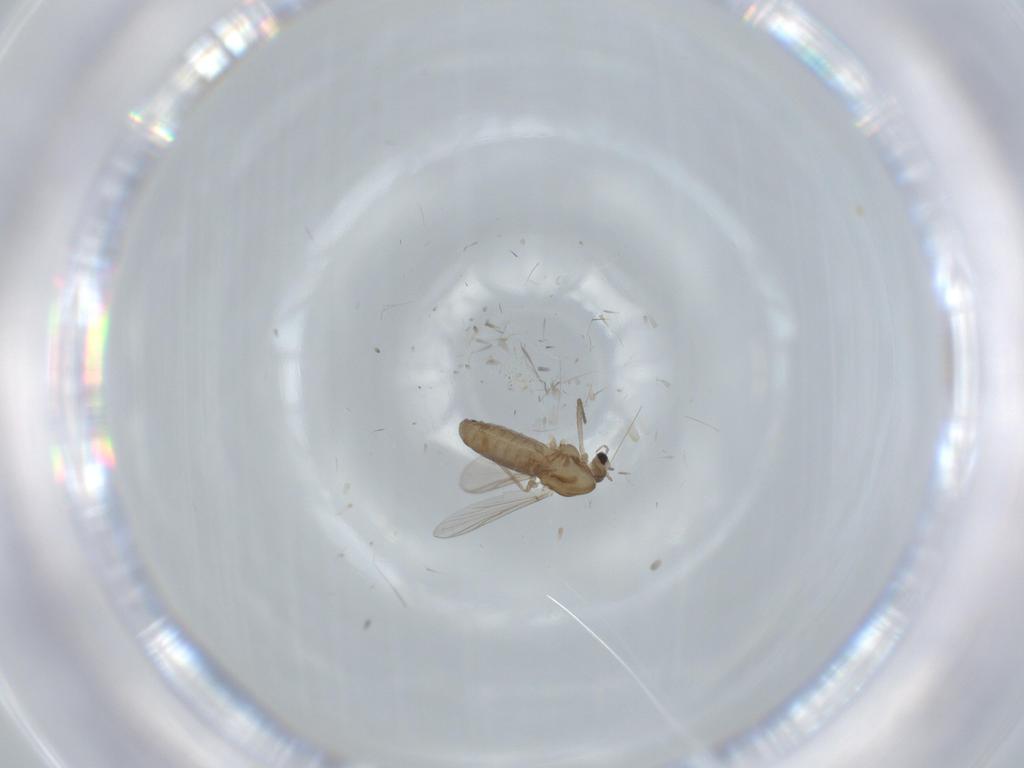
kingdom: Animalia
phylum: Arthropoda
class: Insecta
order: Diptera
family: Chironomidae
